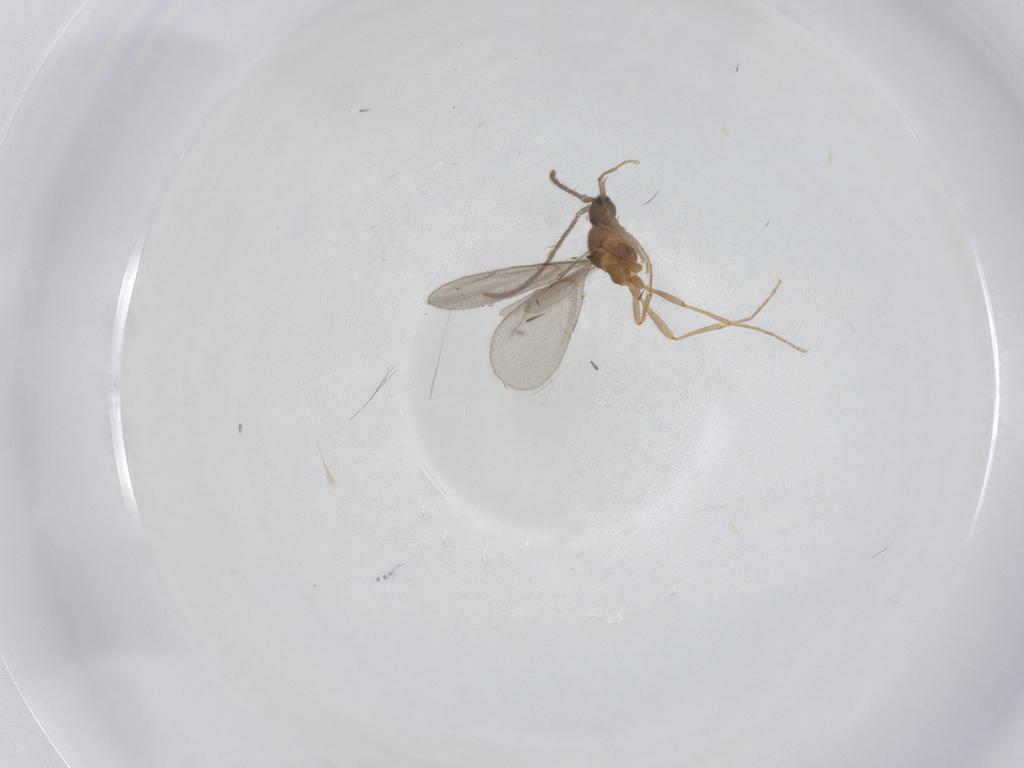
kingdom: Animalia
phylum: Arthropoda
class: Insecta
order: Hymenoptera
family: Formicidae
